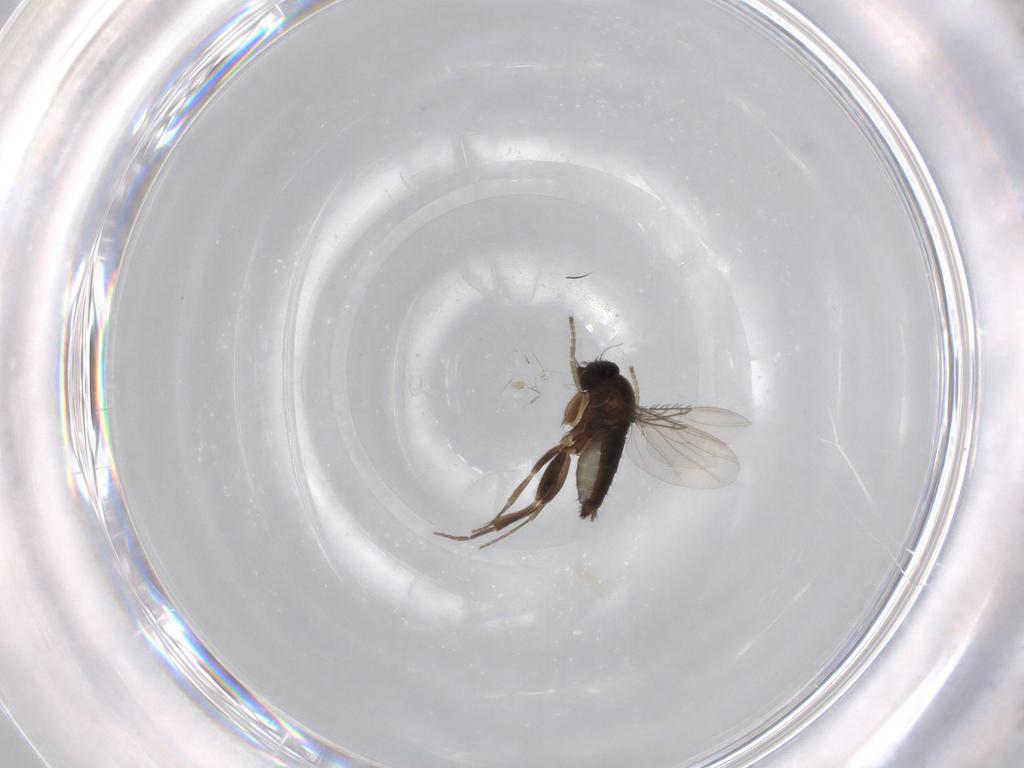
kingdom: Animalia
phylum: Arthropoda
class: Insecta
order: Diptera
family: Phoridae
